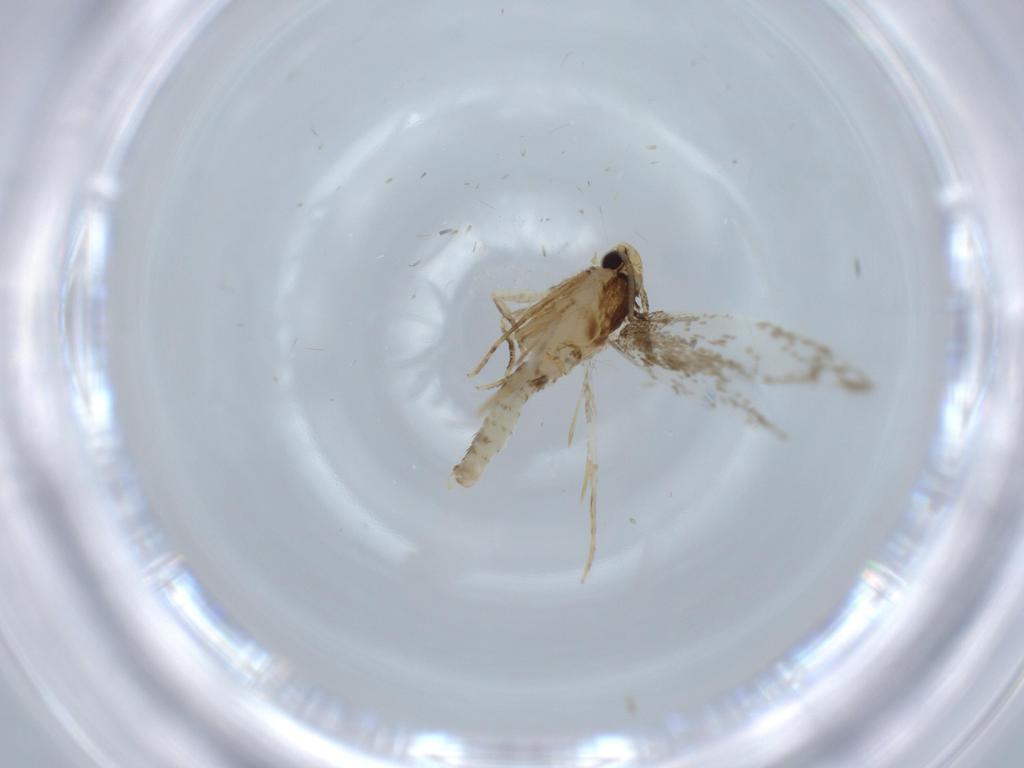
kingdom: Animalia
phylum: Arthropoda
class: Insecta
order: Lepidoptera
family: Tineidae
